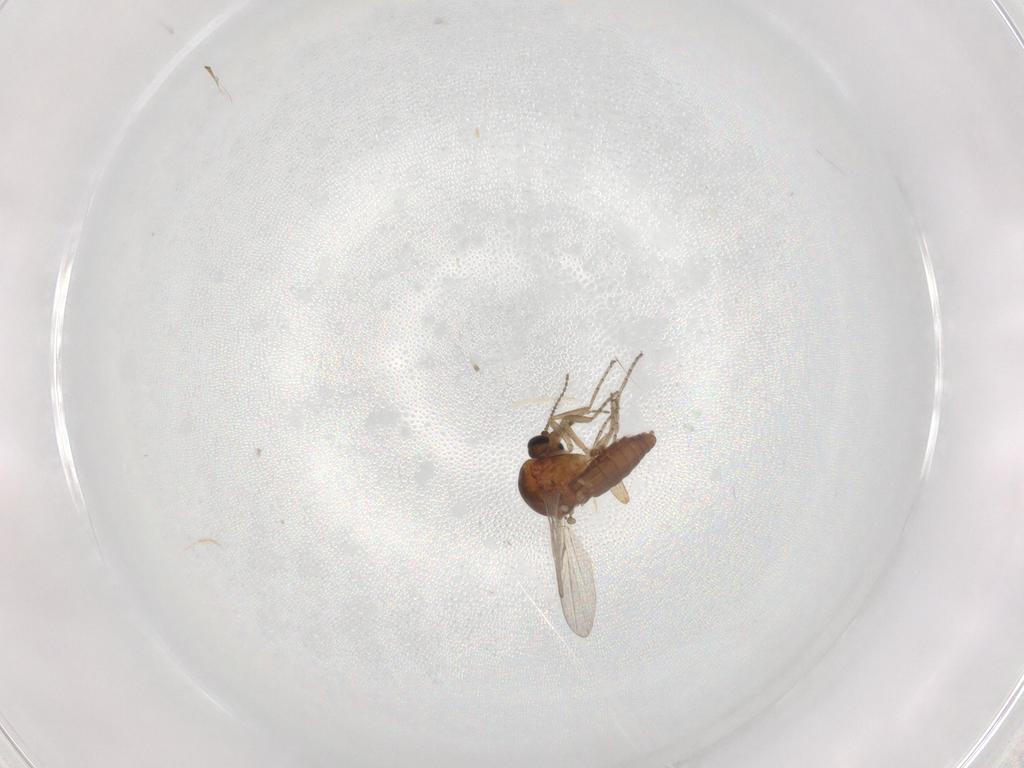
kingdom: Animalia
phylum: Arthropoda
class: Insecta
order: Diptera
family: Ceratopogonidae
